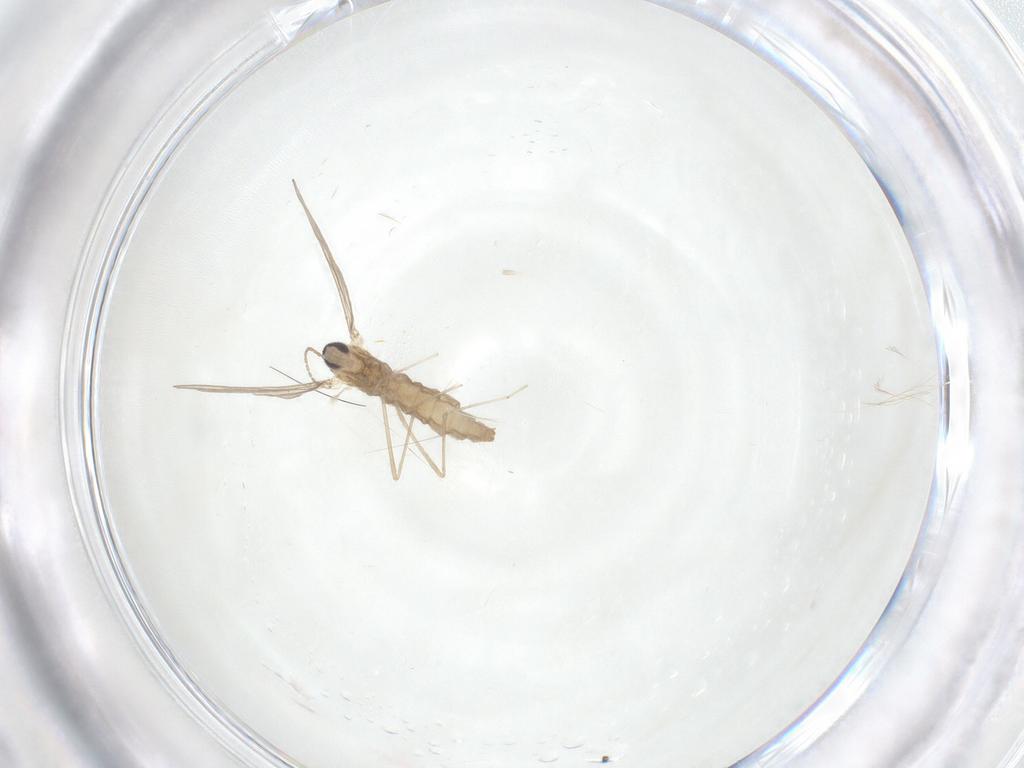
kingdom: Animalia
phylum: Arthropoda
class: Insecta
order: Diptera
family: Cecidomyiidae
